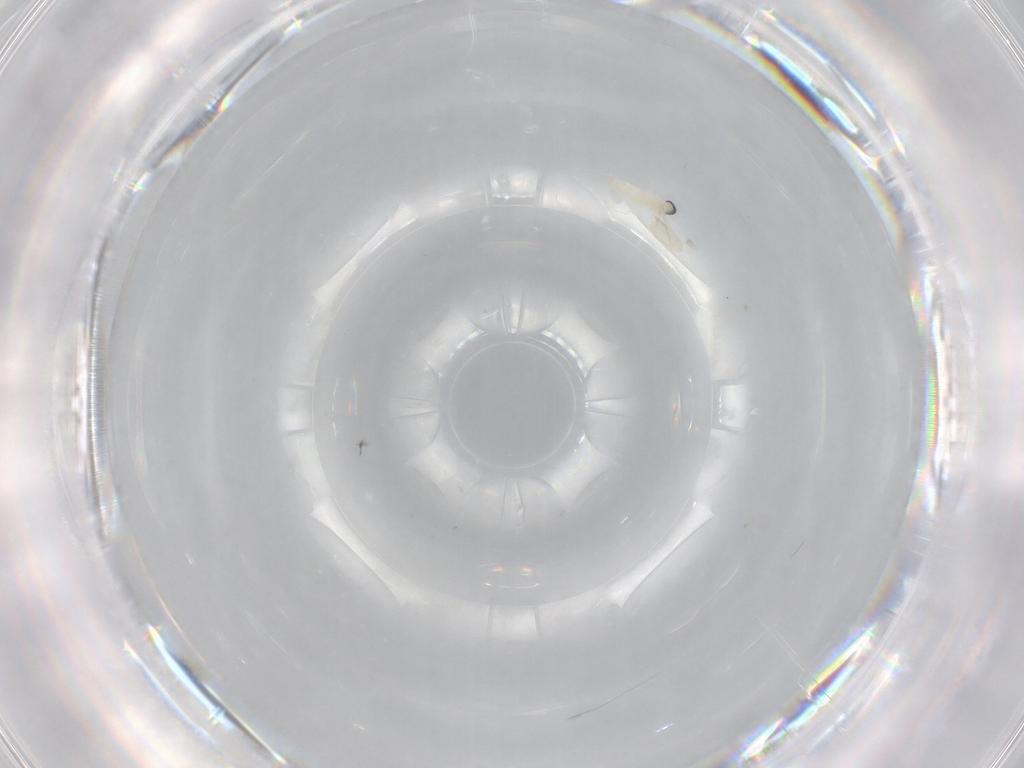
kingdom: Animalia
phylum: Arthropoda
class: Insecta
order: Diptera
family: Cecidomyiidae
